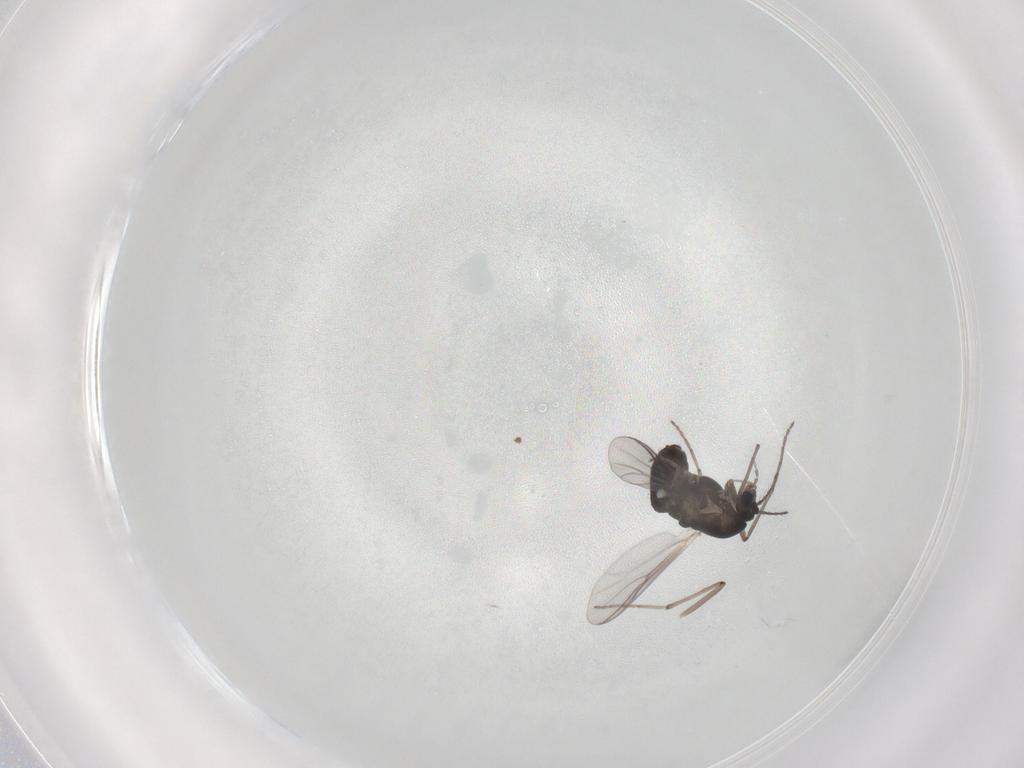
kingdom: Animalia
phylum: Arthropoda
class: Insecta
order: Diptera
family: Chironomidae
